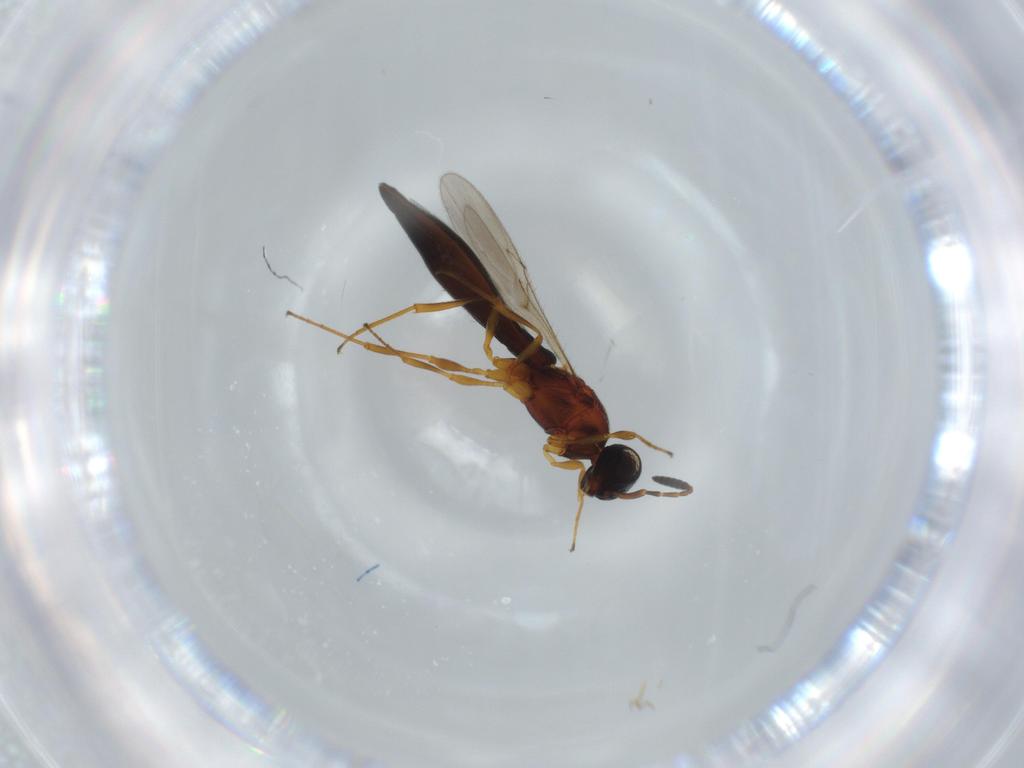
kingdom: Animalia
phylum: Arthropoda
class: Insecta
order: Hymenoptera
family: Scelionidae
